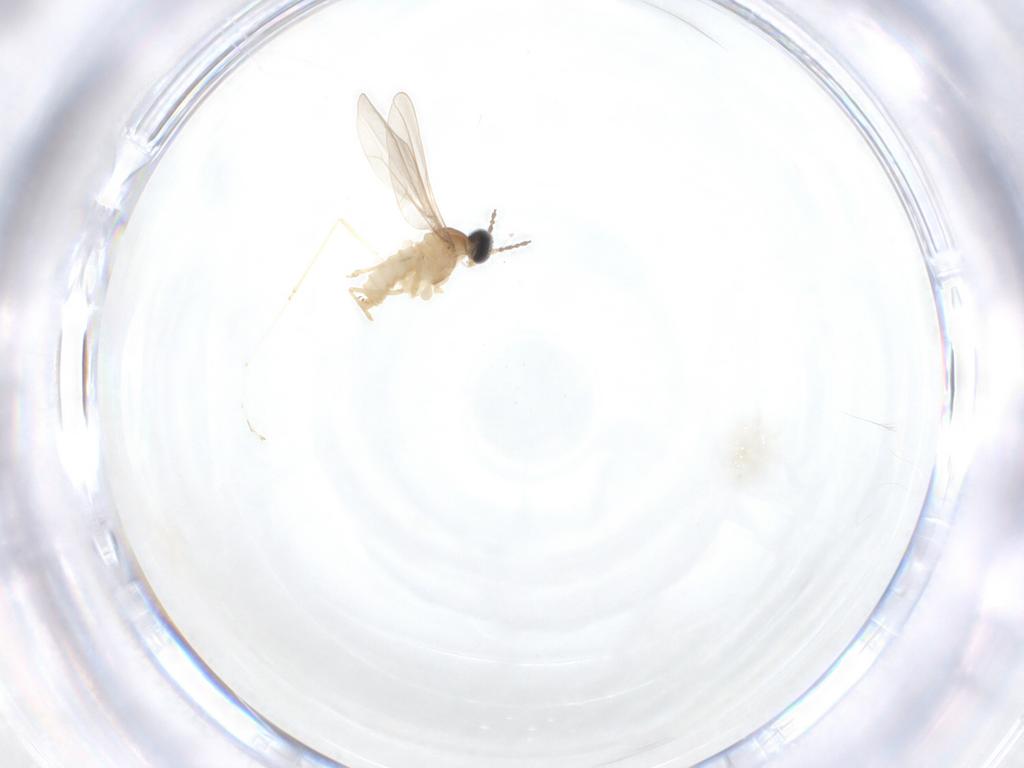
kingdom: Animalia
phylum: Arthropoda
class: Insecta
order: Diptera
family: Cecidomyiidae
